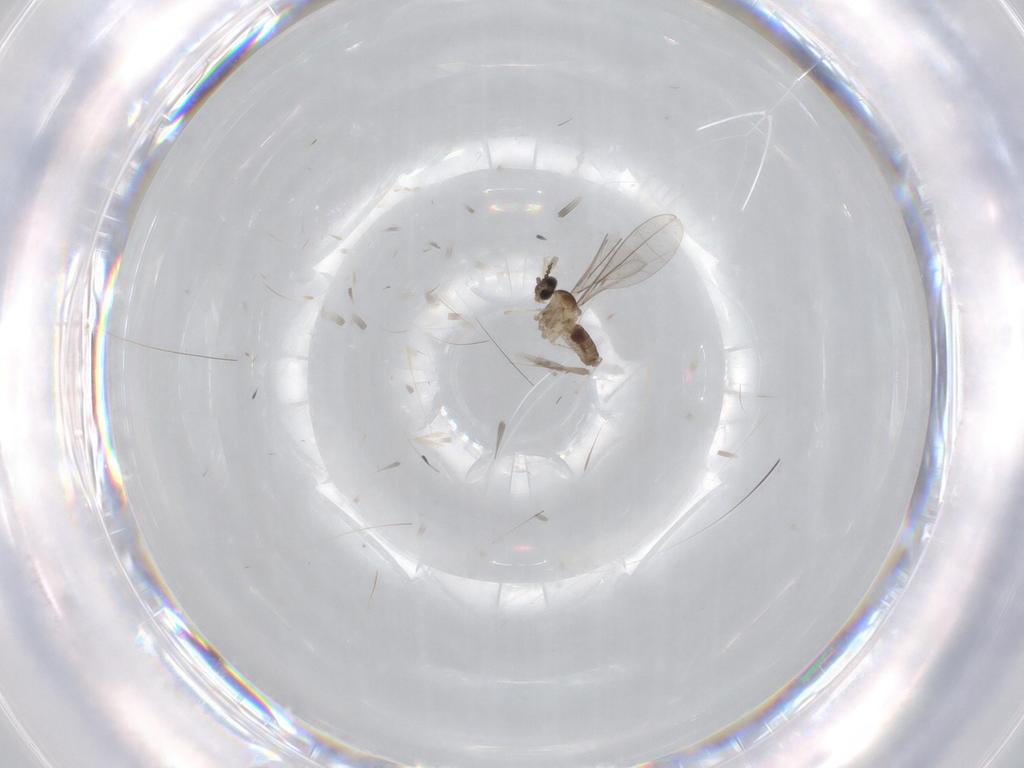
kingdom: Animalia
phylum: Arthropoda
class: Insecta
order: Diptera
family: Cecidomyiidae
